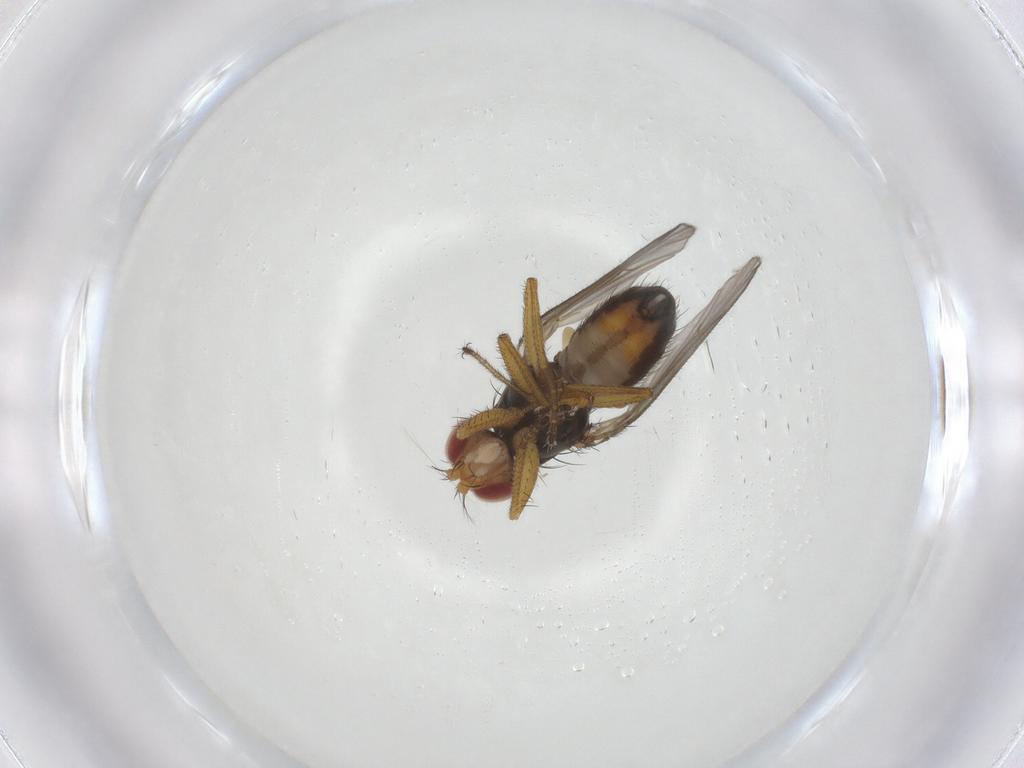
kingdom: Animalia
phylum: Arthropoda
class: Insecta
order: Diptera
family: Drosophilidae
